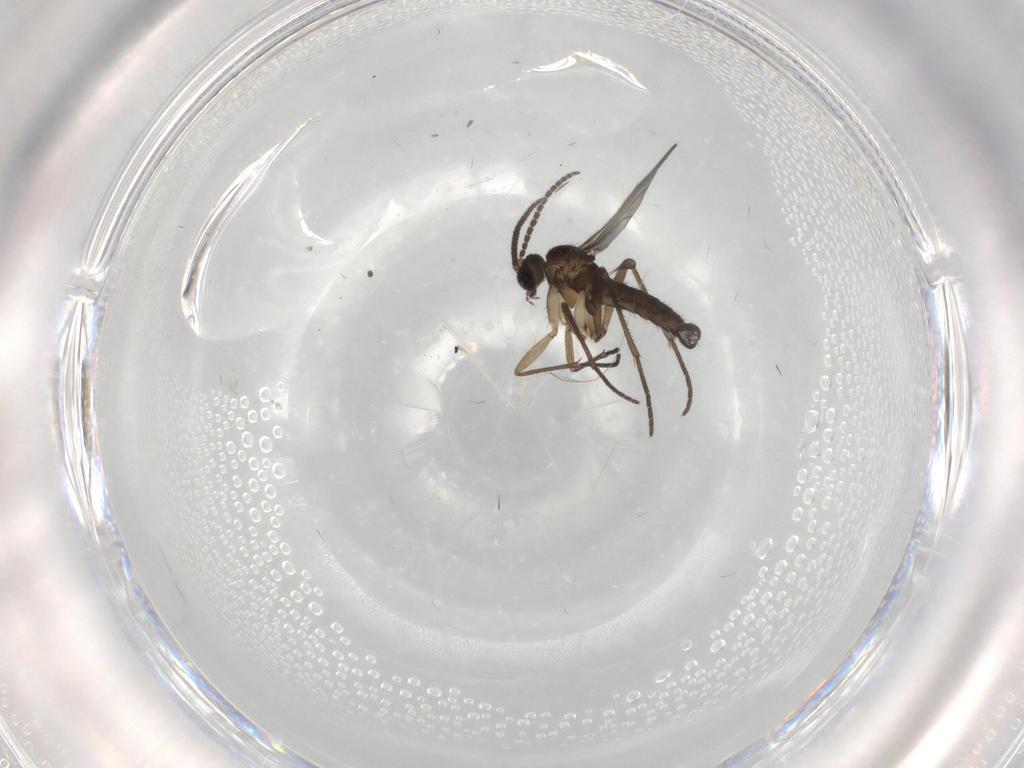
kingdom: Animalia
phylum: Arthropoda
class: Insecta
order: Diptera
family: Sciaridae
